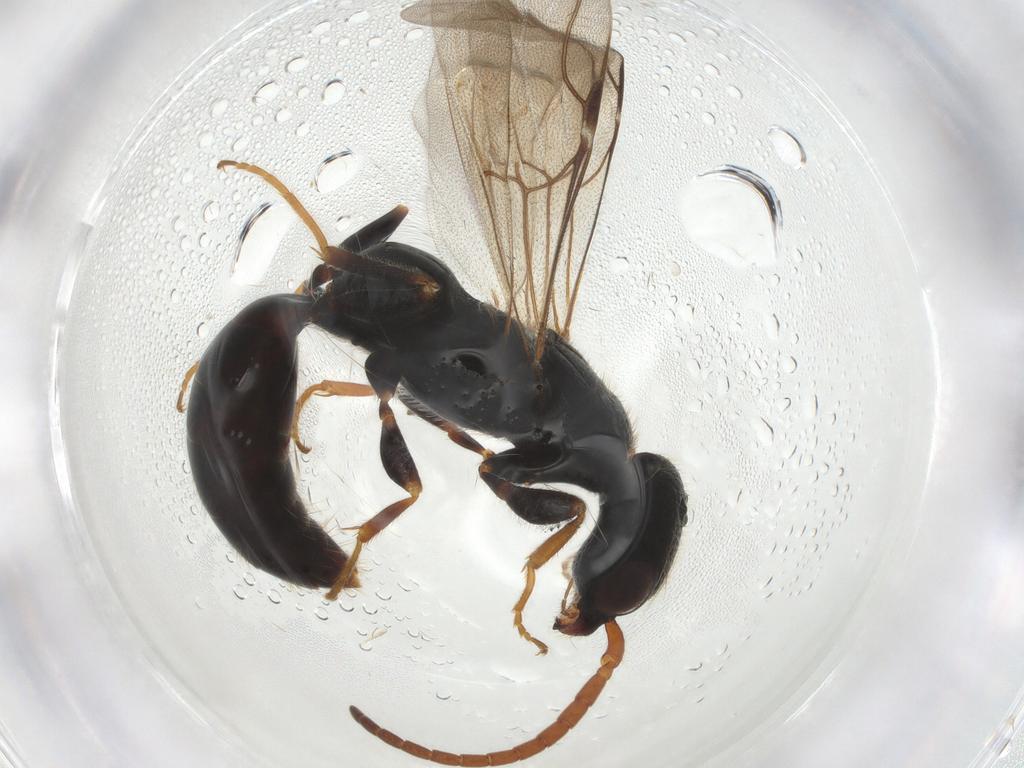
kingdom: Animalia
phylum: Arthropoda
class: Insecta
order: Hymenoptera
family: Bethylidae
